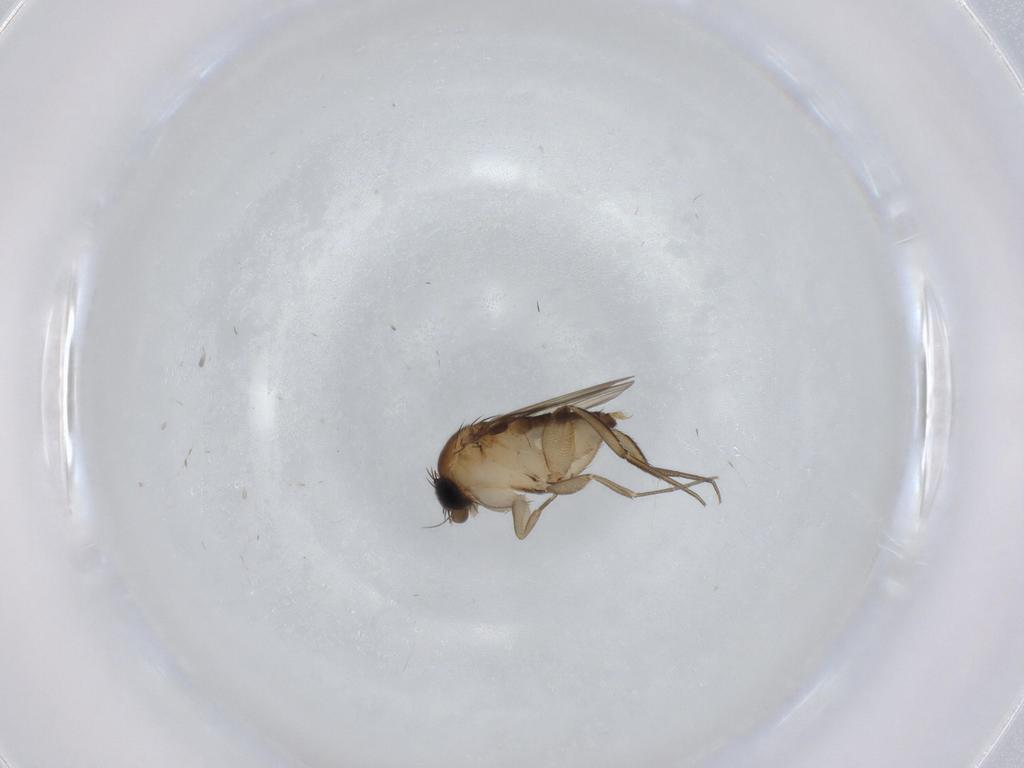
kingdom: Animalia
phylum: Arthropoda
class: Insecta
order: Diptera
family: Phoridae
